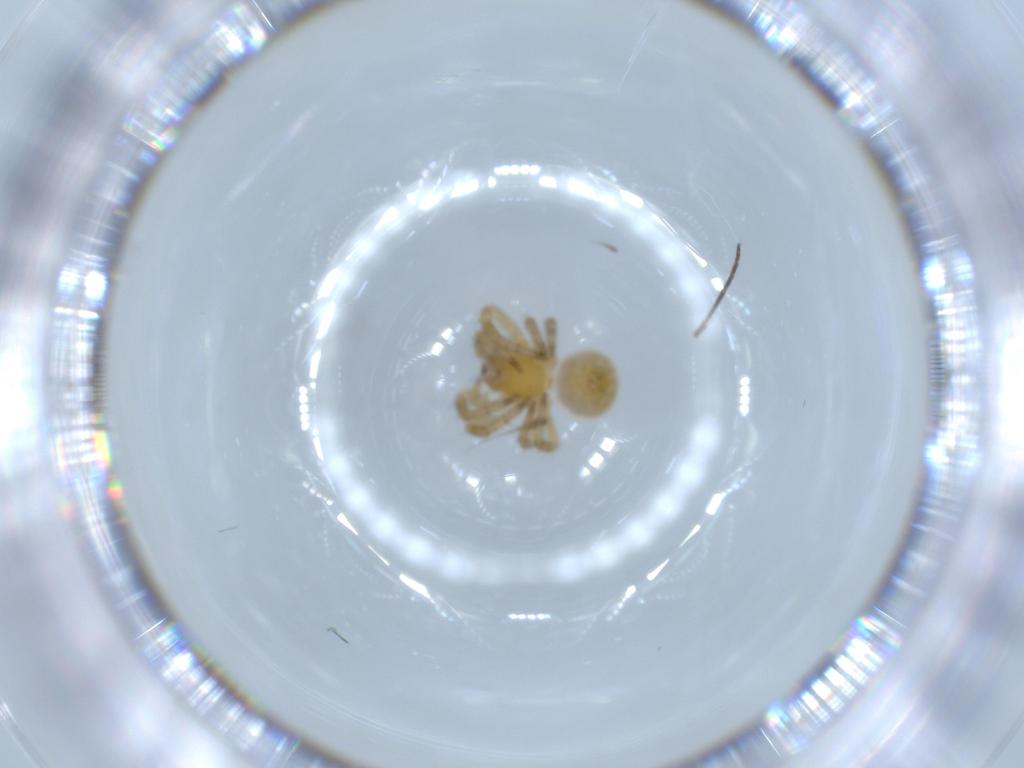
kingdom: Animalia
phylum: Arthropoda
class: Arachnida
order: Araneae
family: Araneidae
